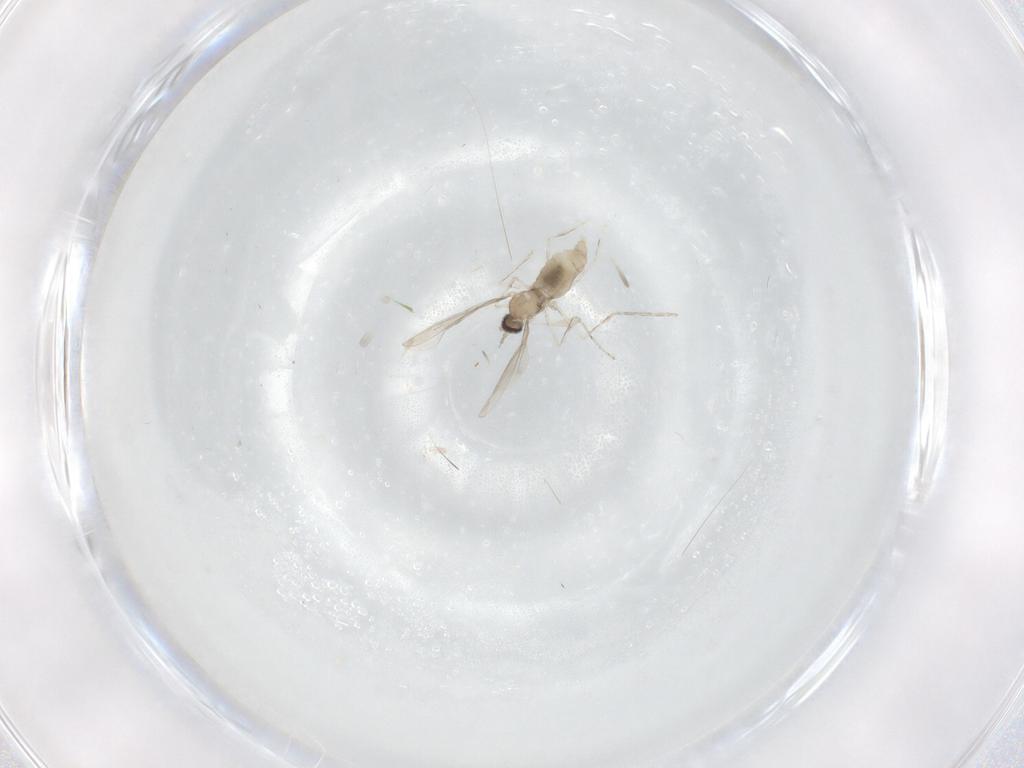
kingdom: Animalia
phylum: Arthropoda
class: Insecta
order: Diptera
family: Cecidomyiidae
